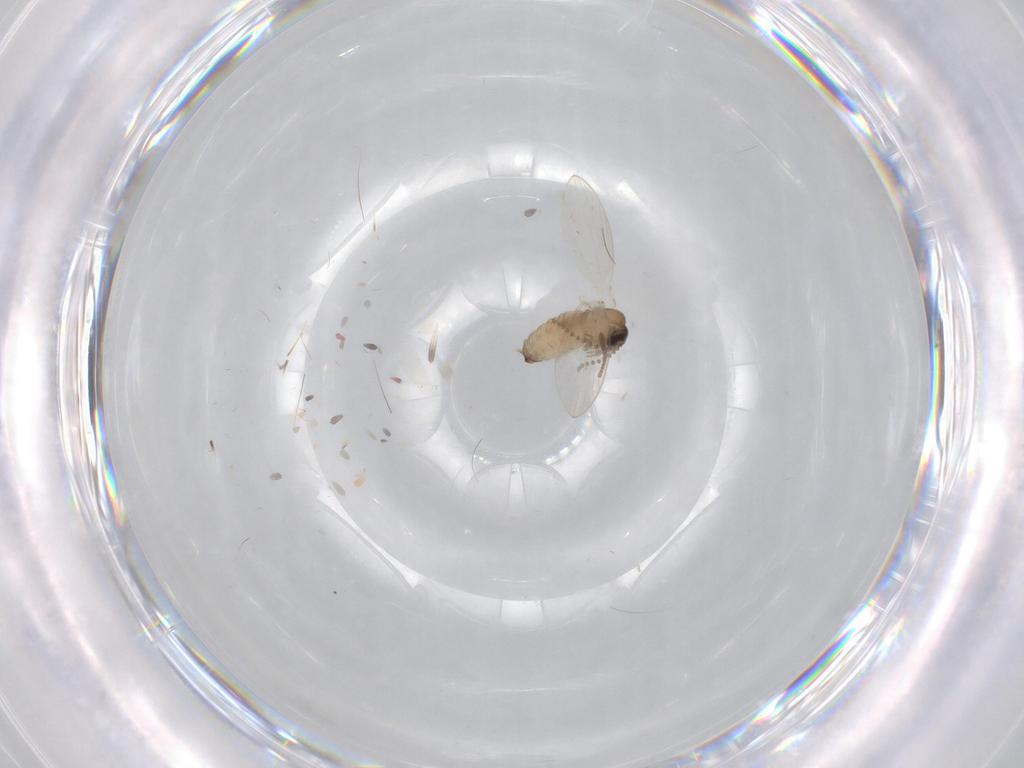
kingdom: Animalia
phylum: Arthropoda
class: Insecta
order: Diptera
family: Psychodidae
